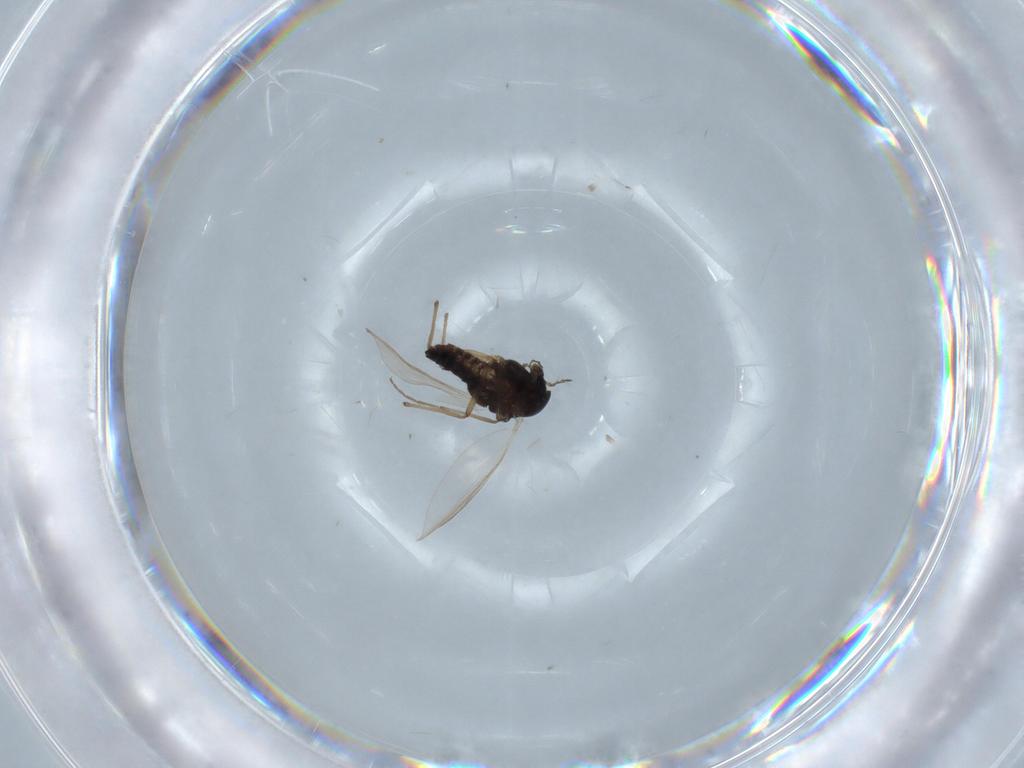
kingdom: Animalia
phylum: Arthropoda
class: Insecta
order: Diptera
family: Chironomidae
